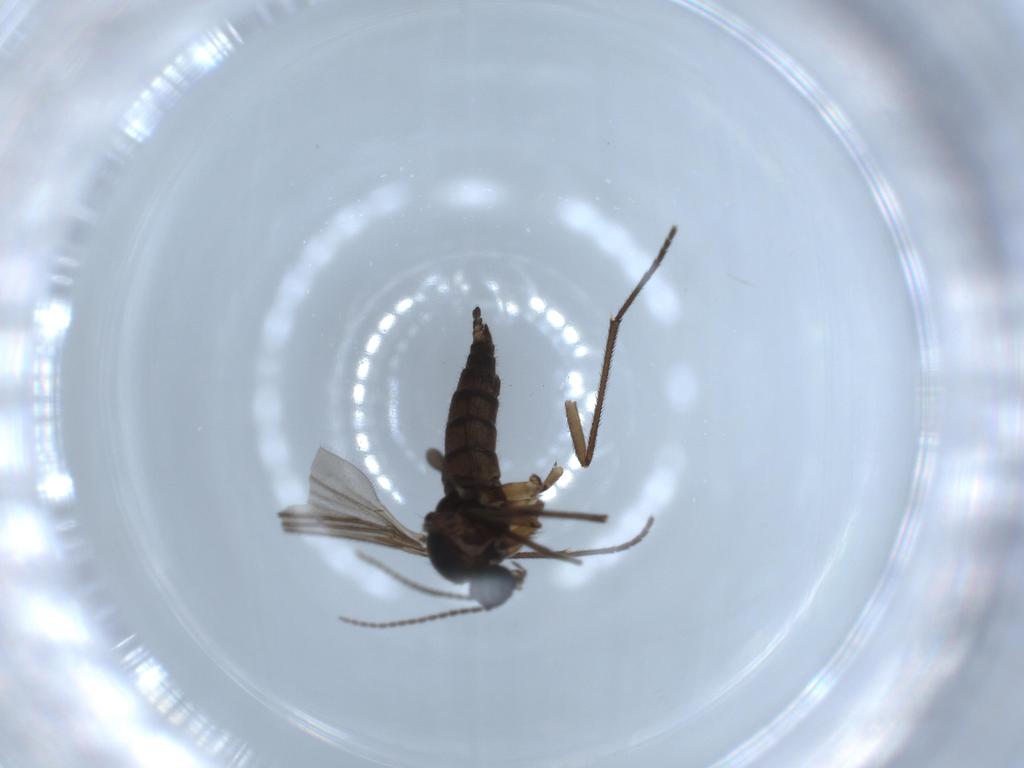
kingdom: Animalia
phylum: Arthropoda
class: Insecta
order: Diptera
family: Sciaridae
